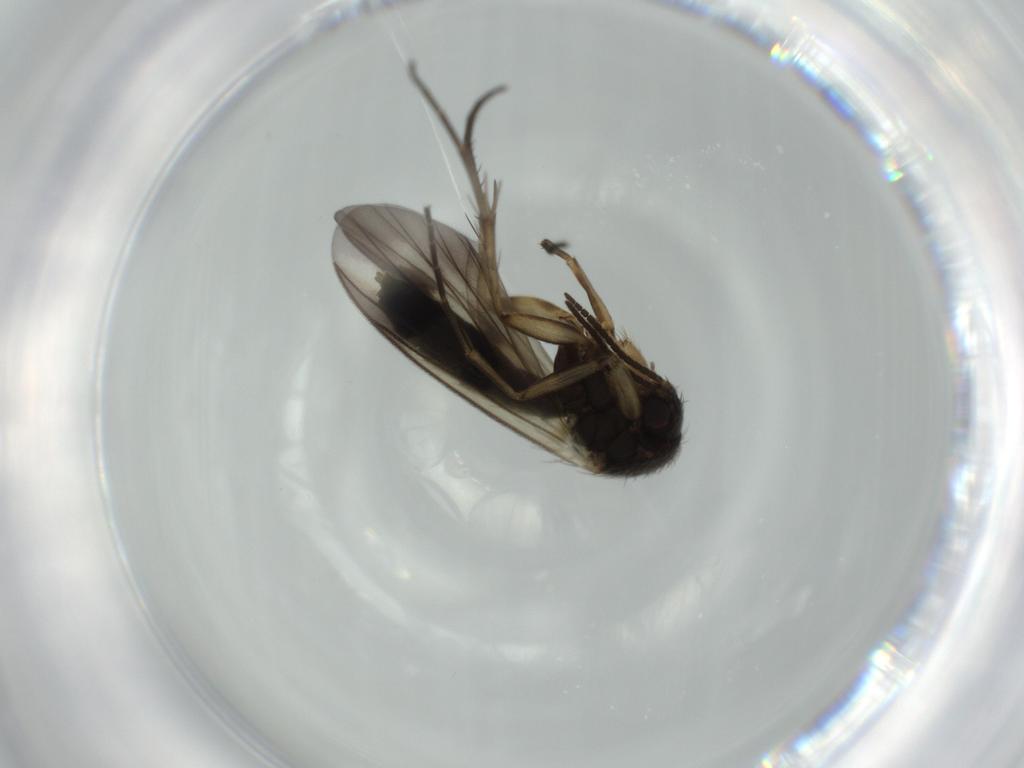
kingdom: Animalia
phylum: Arthropoda
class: Insecta
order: Diptera
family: Mycetophilidae
